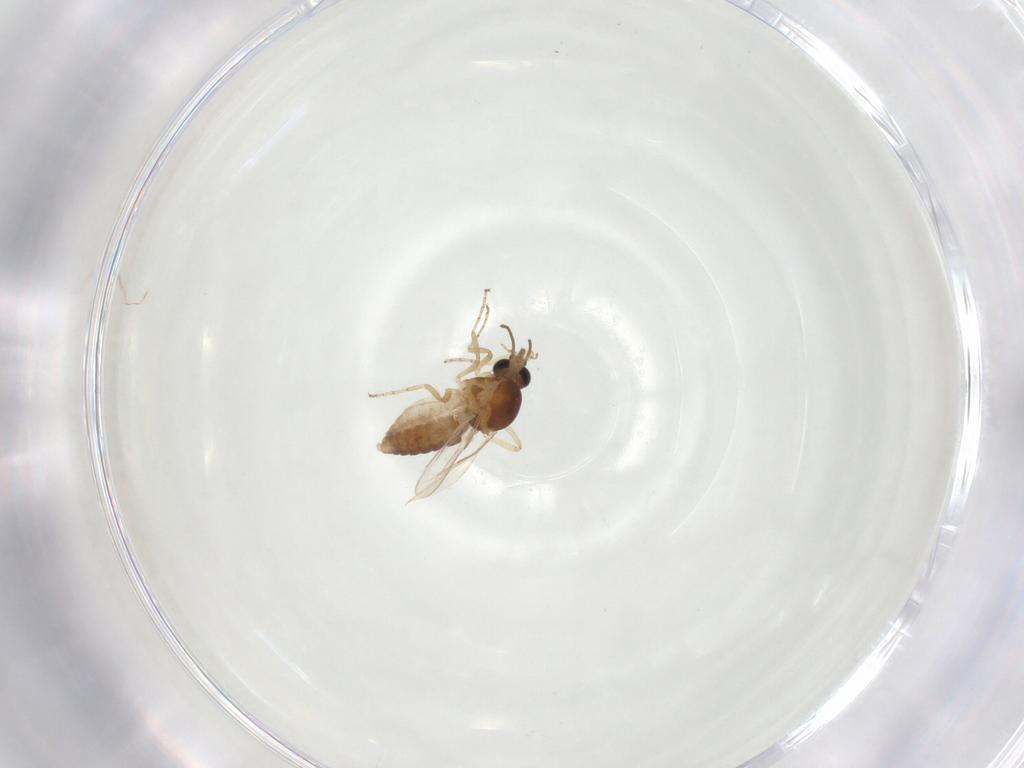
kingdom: Animalia
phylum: Arthropoda
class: Insecta
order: Diptera
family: Ceratopogonidae
